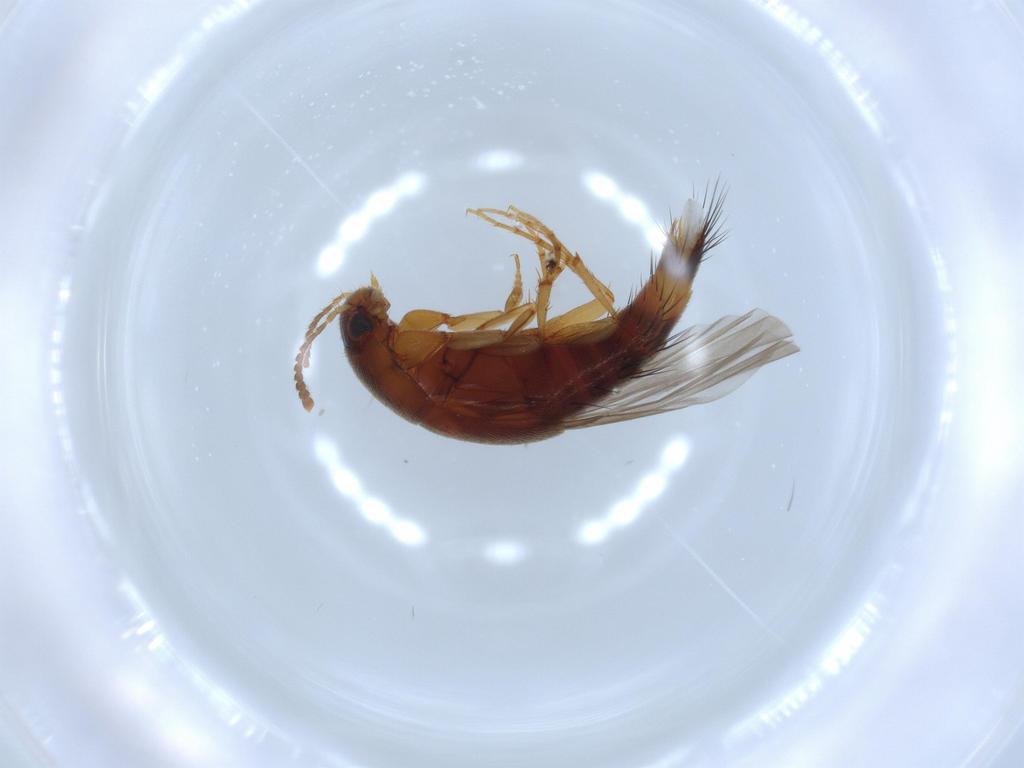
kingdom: Animalia
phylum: Arthropoda
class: Insecta
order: Coleoptera
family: Staphylinidae
